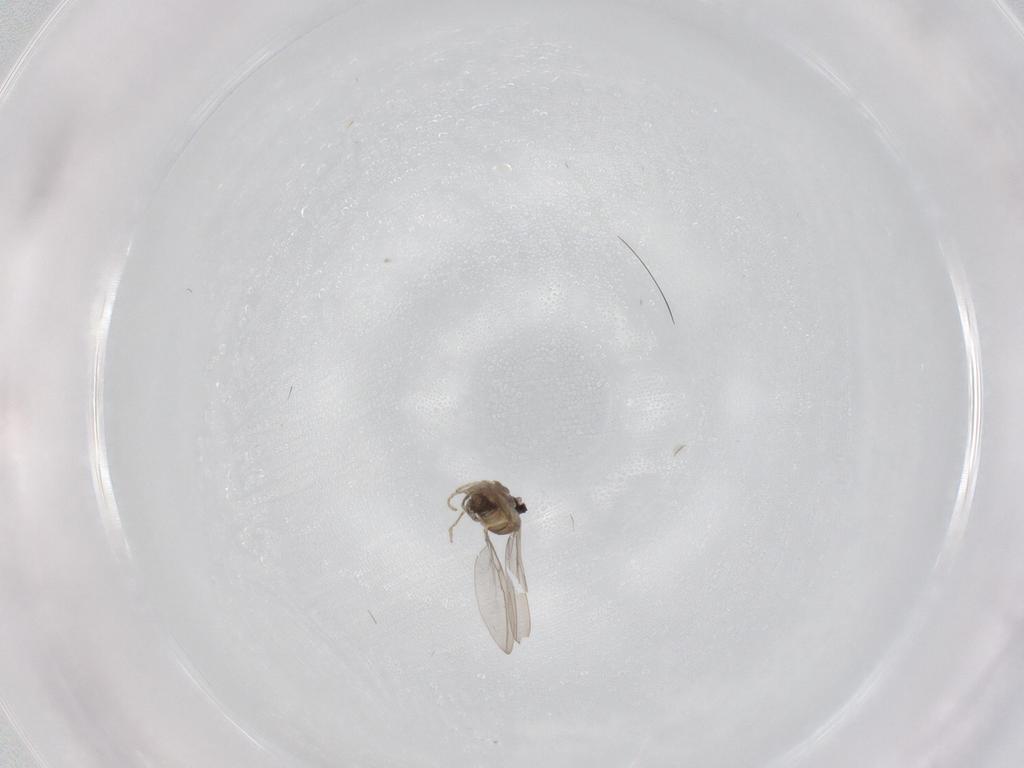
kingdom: Animalia
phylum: Arthropoda
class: Insecta
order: Diptera
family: Cecidomyiidae
